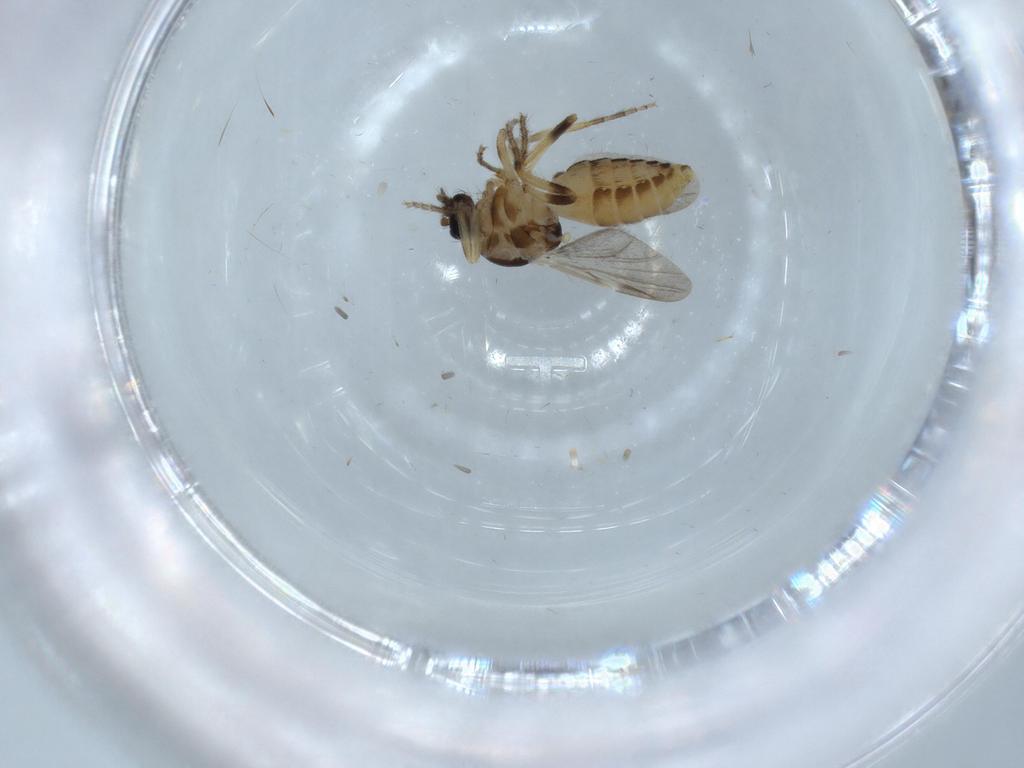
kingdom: Animalia
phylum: Arthropoda
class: Insecta
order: Diptera
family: Ceratopogonidae
